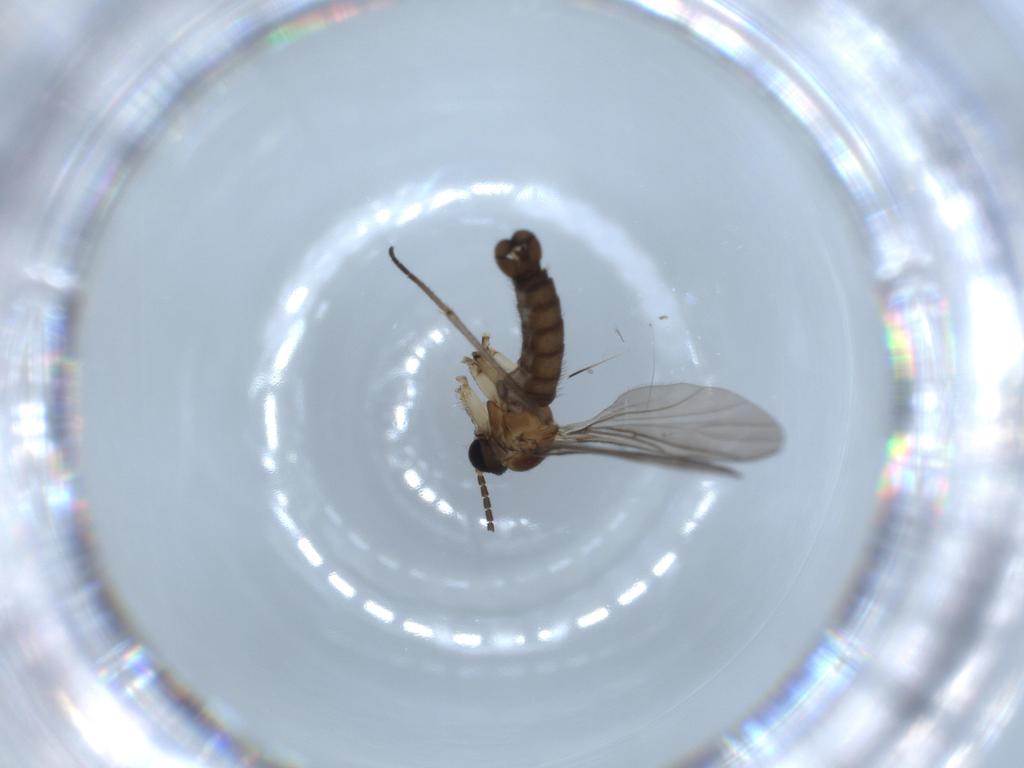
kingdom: Animalia
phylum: Arthropoda
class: Insecta
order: Diptera
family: Sciaridae
